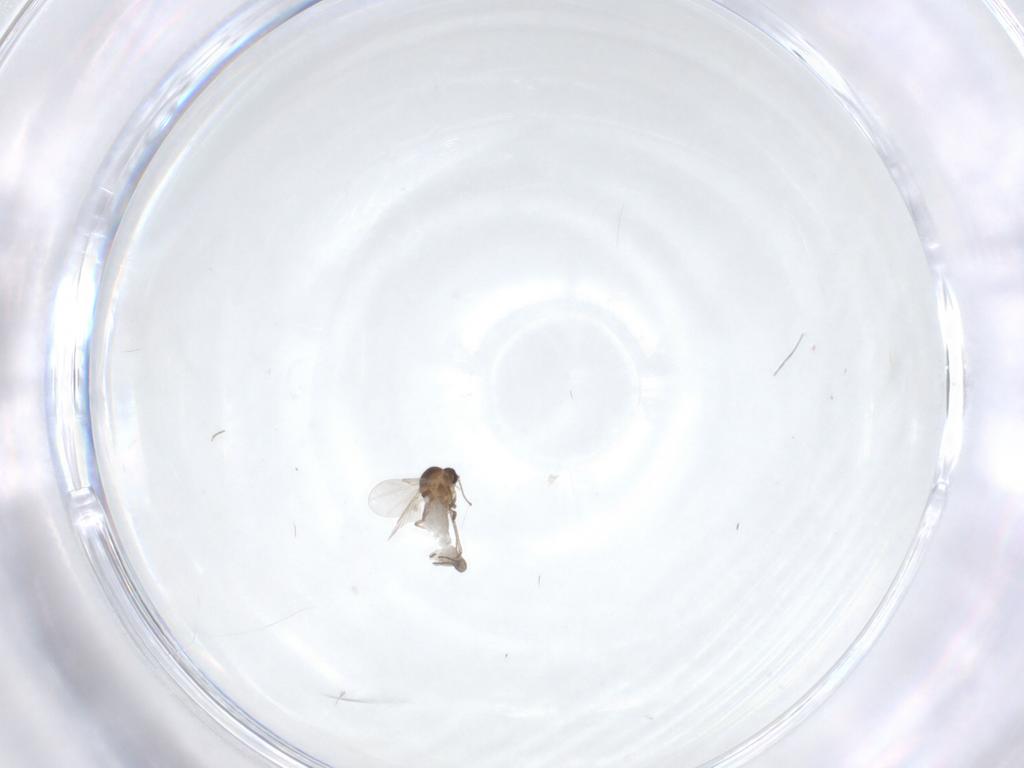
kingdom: Animalia
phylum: Arthropoda
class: Insecta
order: Diptera
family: Ceratopogonidae
